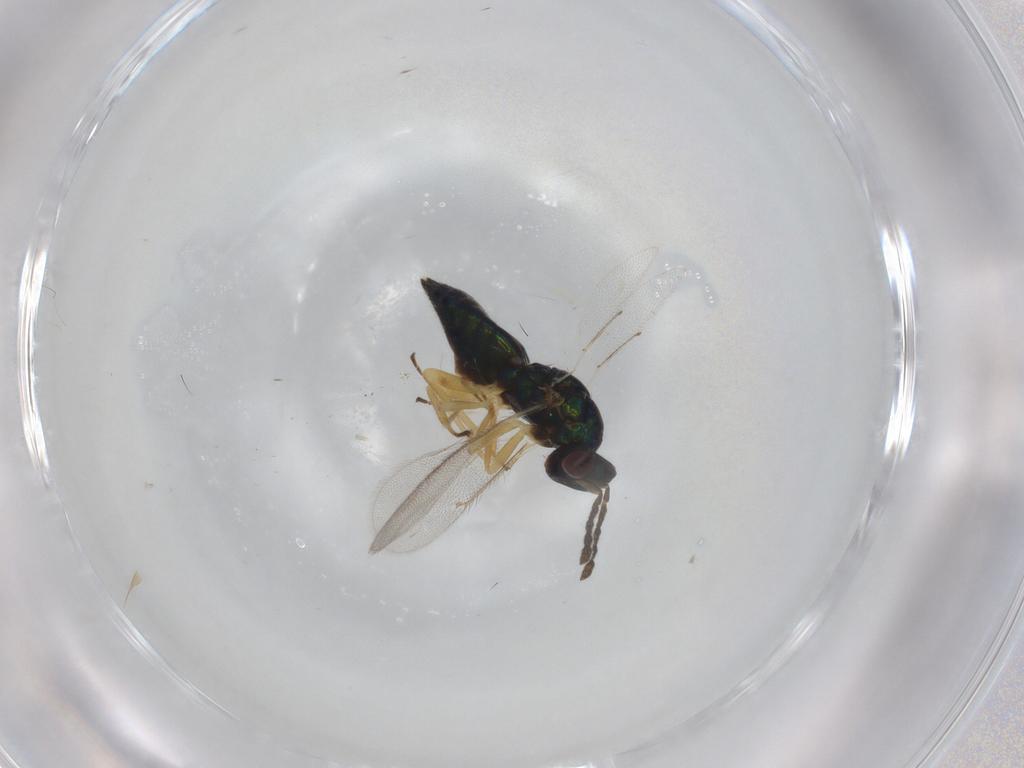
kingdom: Animalia
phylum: Arthropoda
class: Insecta
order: Hymenoptera
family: Eulophidae
